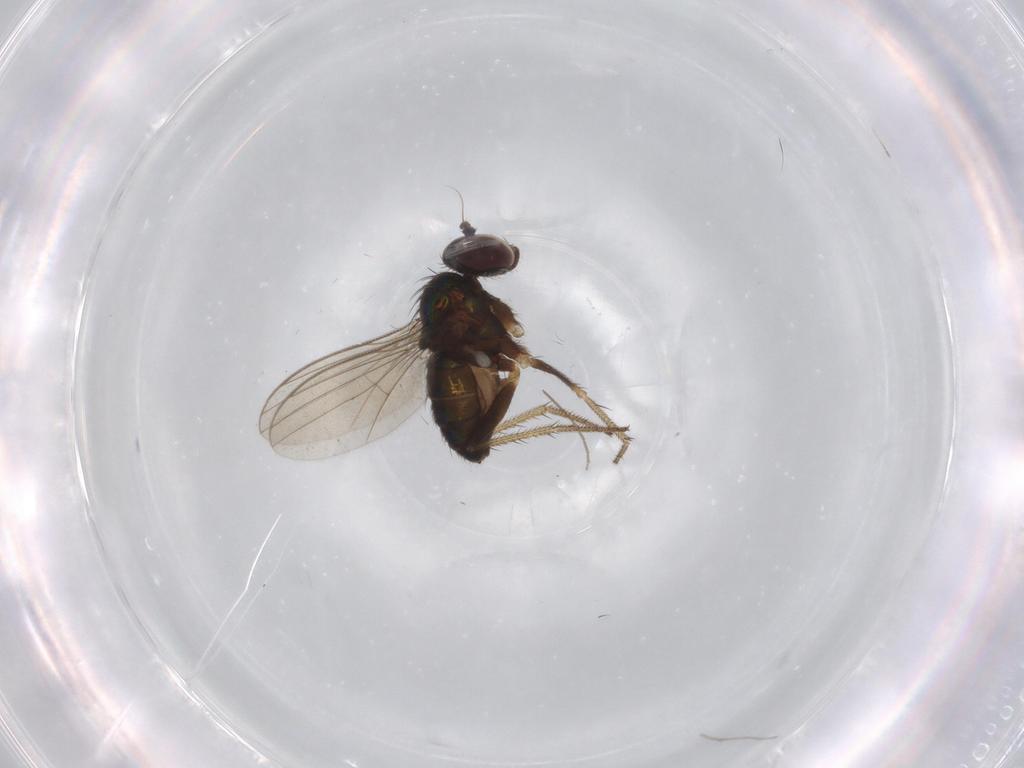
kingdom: Animalia
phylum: Arthropoda
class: Insecta
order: Diptera
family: Dolichopodidae
